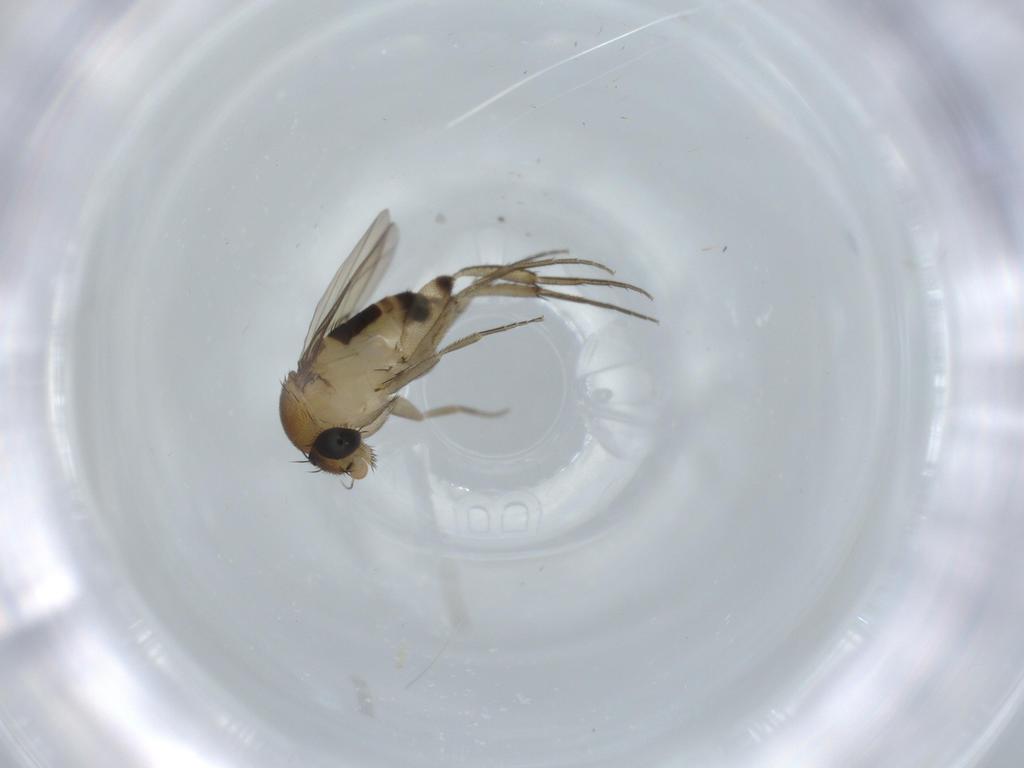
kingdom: Animalia
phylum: Arthropoda
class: Insecta
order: Diptera
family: Phoridae
